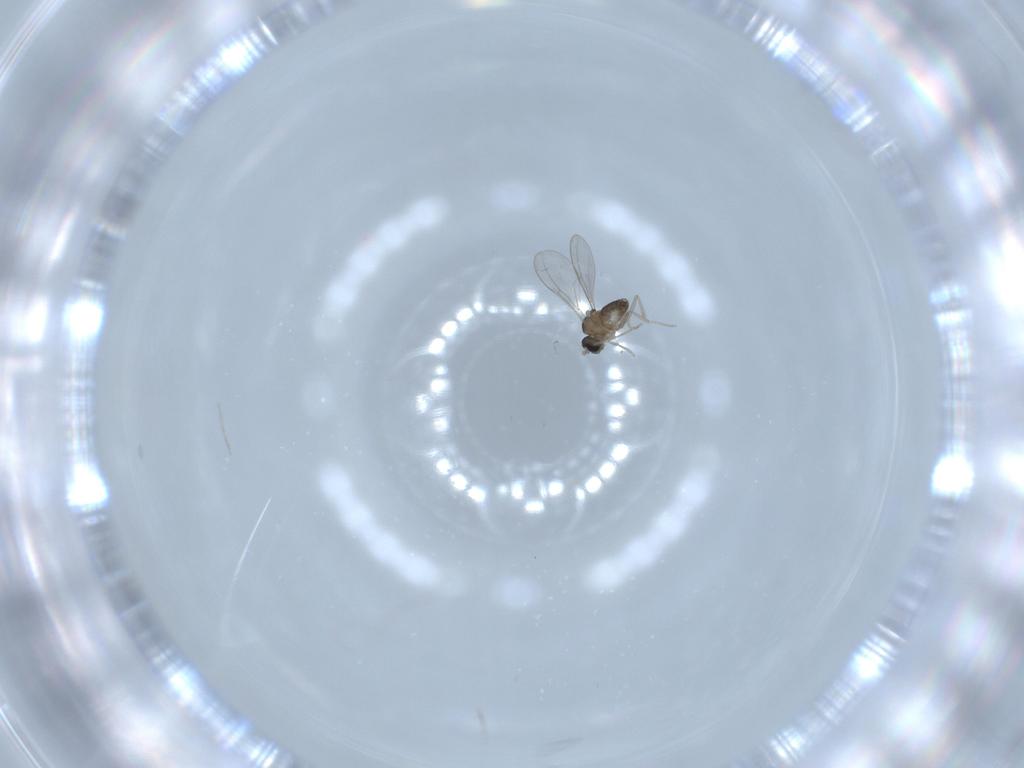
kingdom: Animalia
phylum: Arthropoda
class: Insecta
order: Diptera
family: Cecidomyiidae
